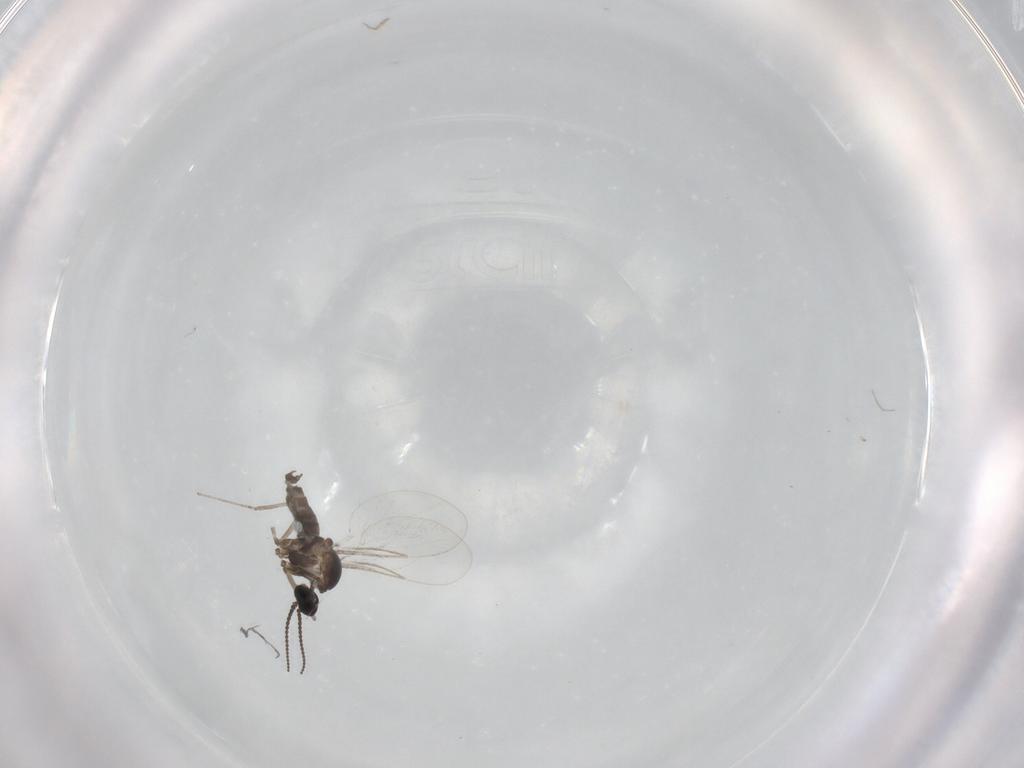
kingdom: Animalia
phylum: Arthropoda
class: Insecta
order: Diptera
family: Cecidomyiidae
